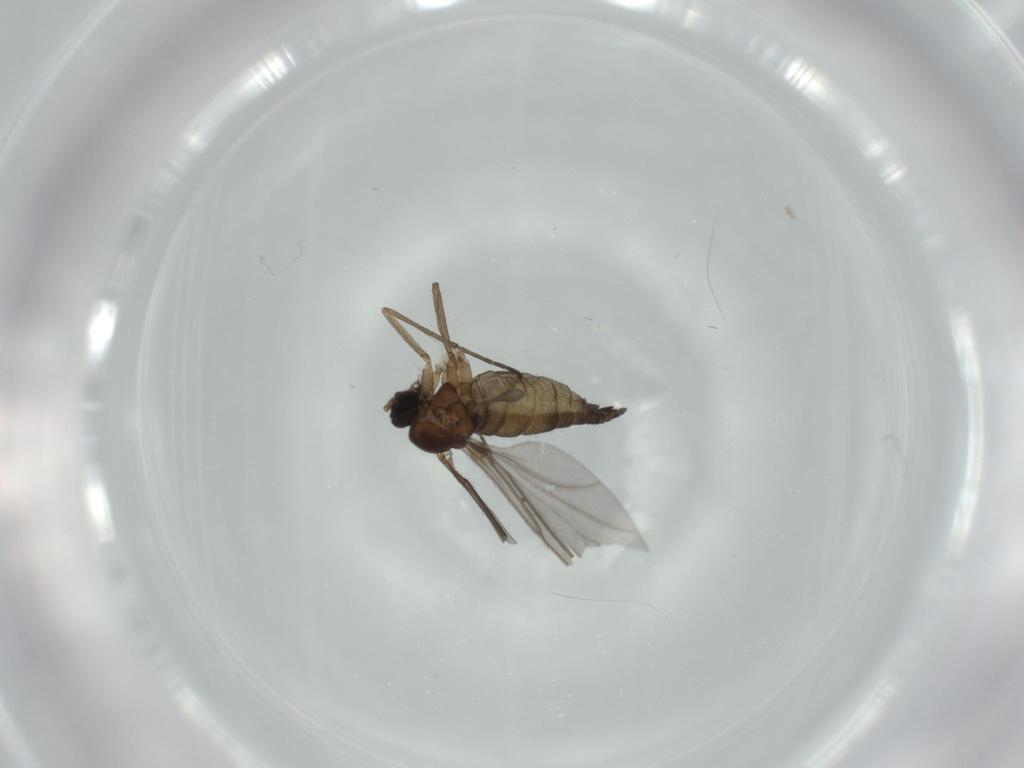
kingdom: Animalia
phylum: Arthropoda
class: Insecta
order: Diptera
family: Sciaridae
